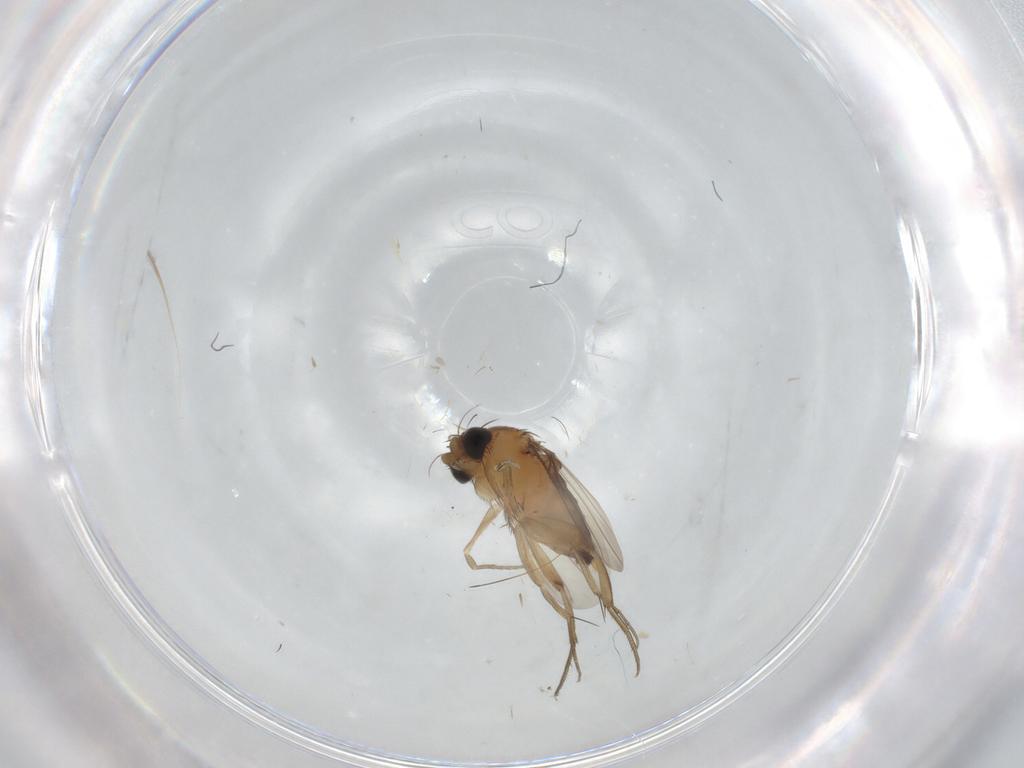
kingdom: Animalia
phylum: Arthropoda
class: Insecta
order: Diptera
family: Phoridae
